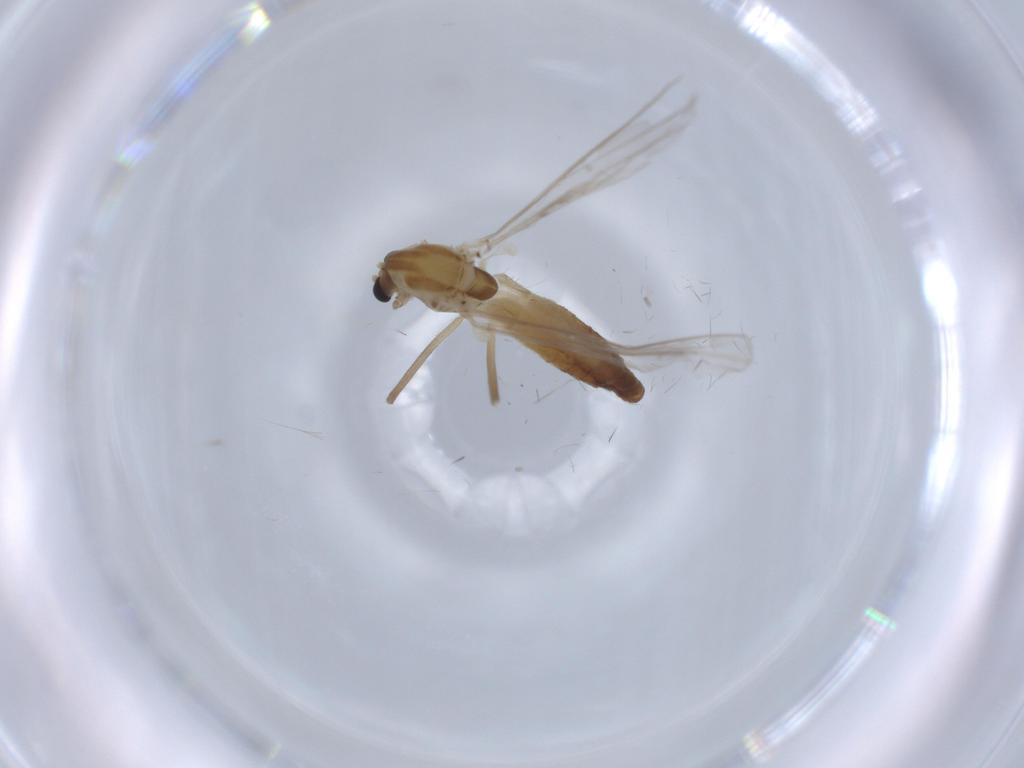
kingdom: Animalia
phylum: Arthropoda
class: Insecta
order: Diptera
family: Chironomidae
